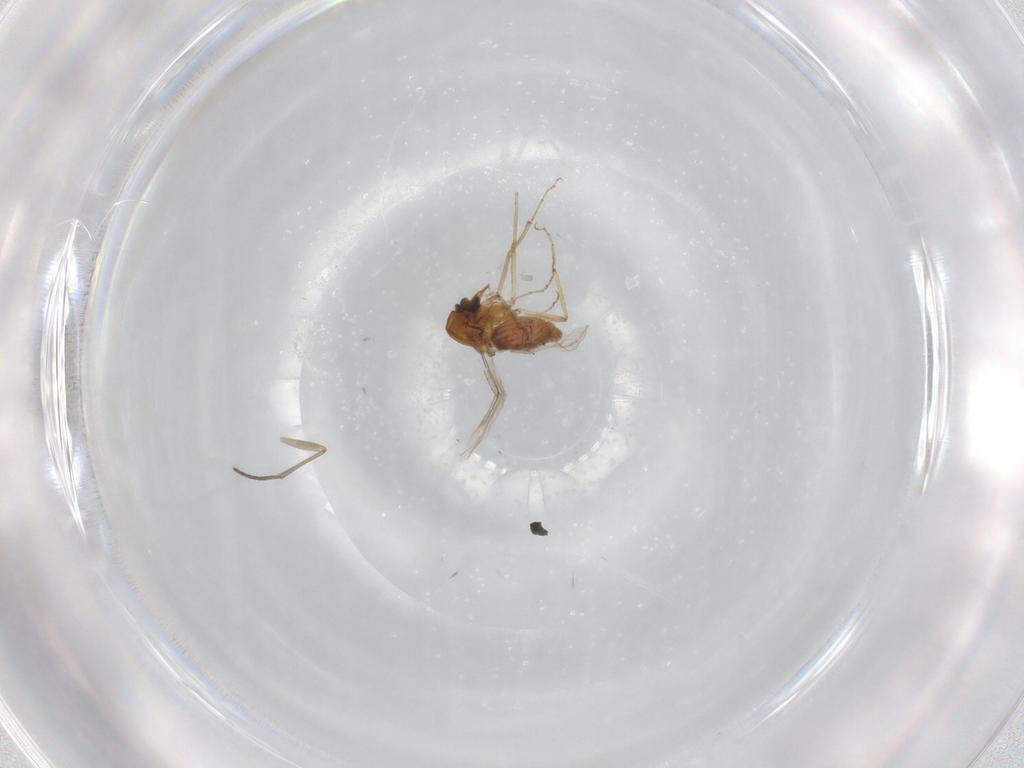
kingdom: Animalia
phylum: Arthropoda
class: Insecta
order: Diptera
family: Cecidomyiidae
